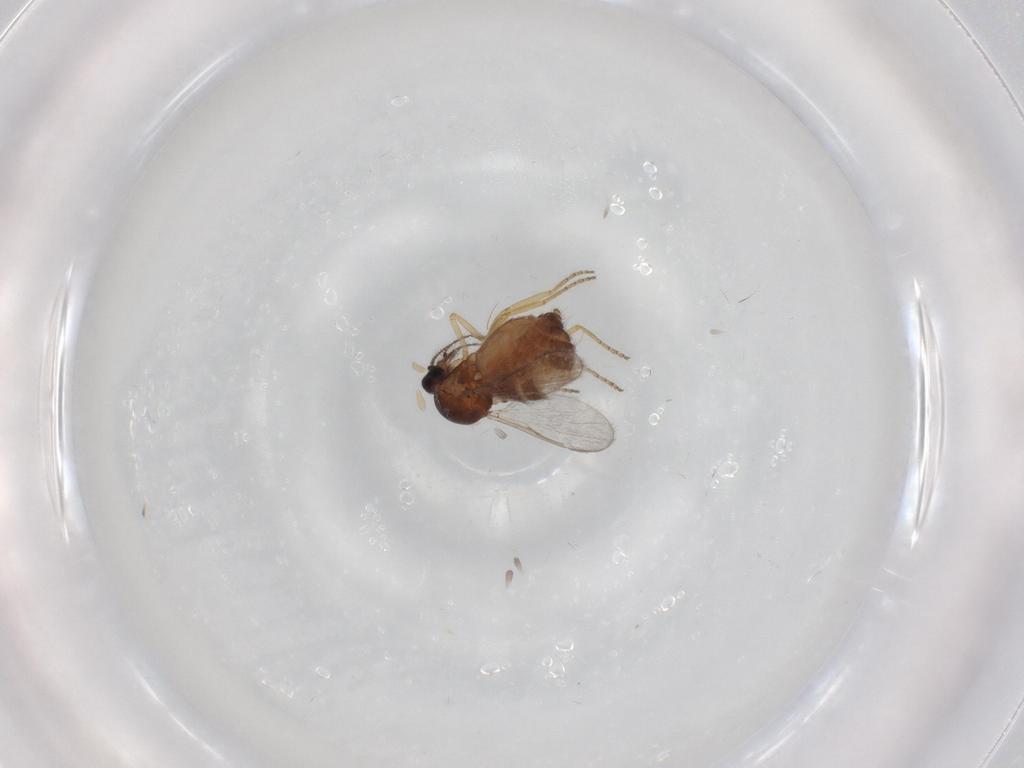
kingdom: Animalia
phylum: Arthropoda
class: Insecta
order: Diptera
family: Ceratopogonidae
